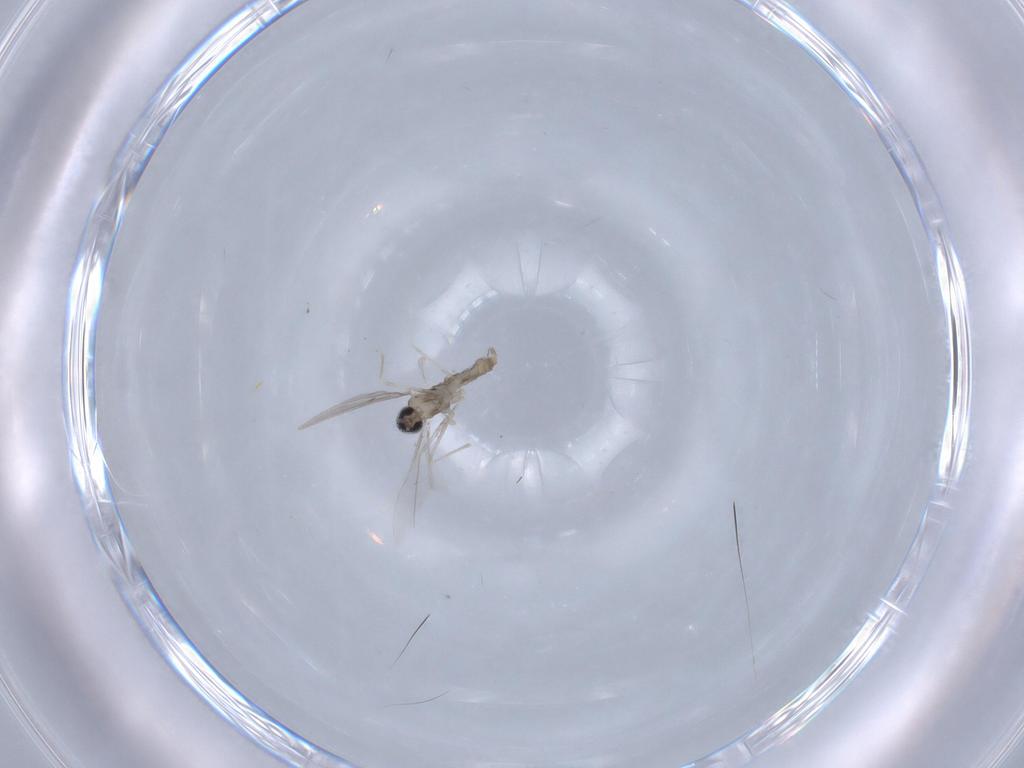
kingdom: Animalia
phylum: Arthropoda
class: Insecta
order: Diptera
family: Cecidomyiidae
